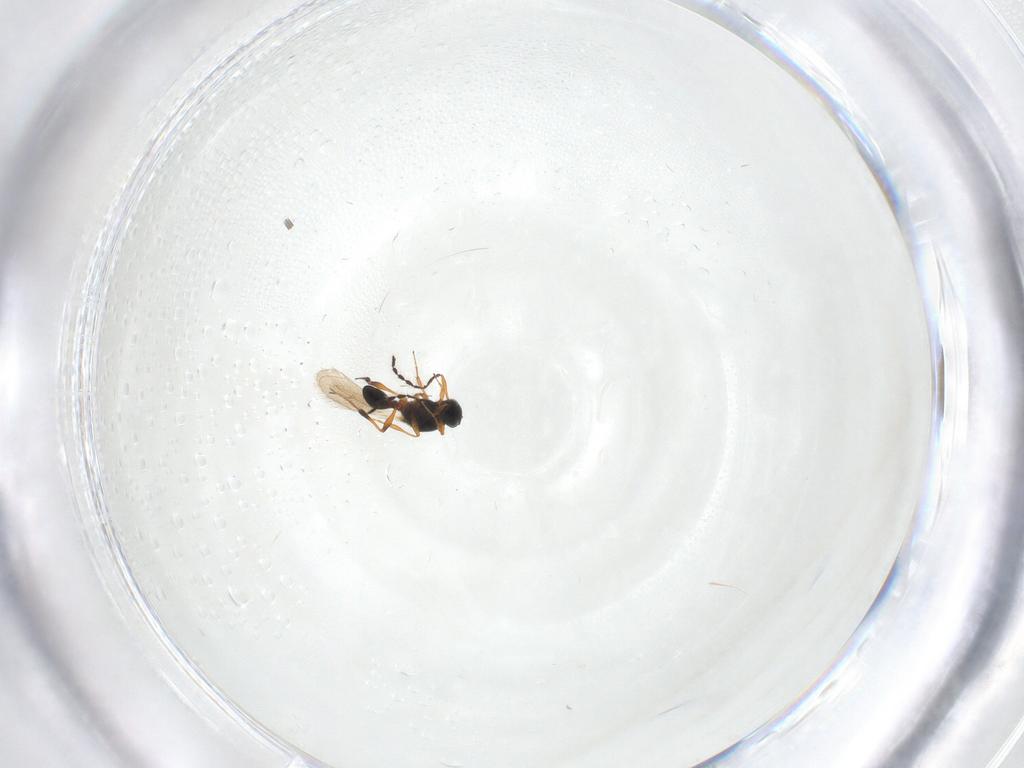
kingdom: Animalia
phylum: Arthropoda
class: Insecta
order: Hymenoptera
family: Platygastridae
